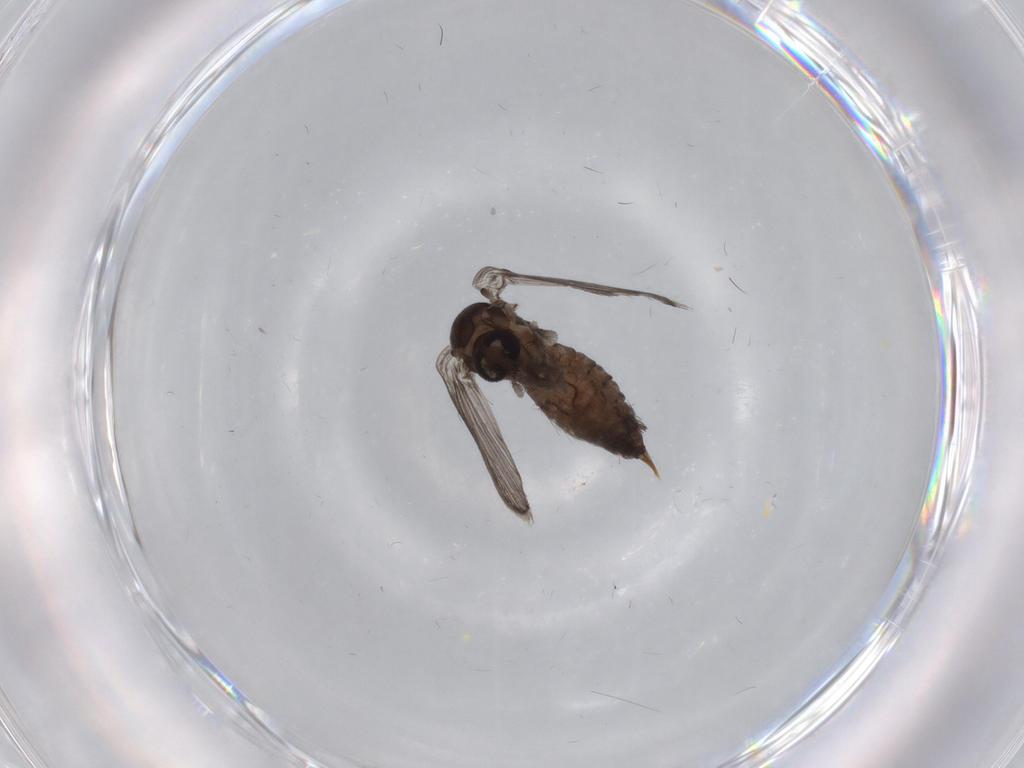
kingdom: Animalia
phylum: Arthropoda
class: Insecta
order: Diptera
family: Psychodidae
